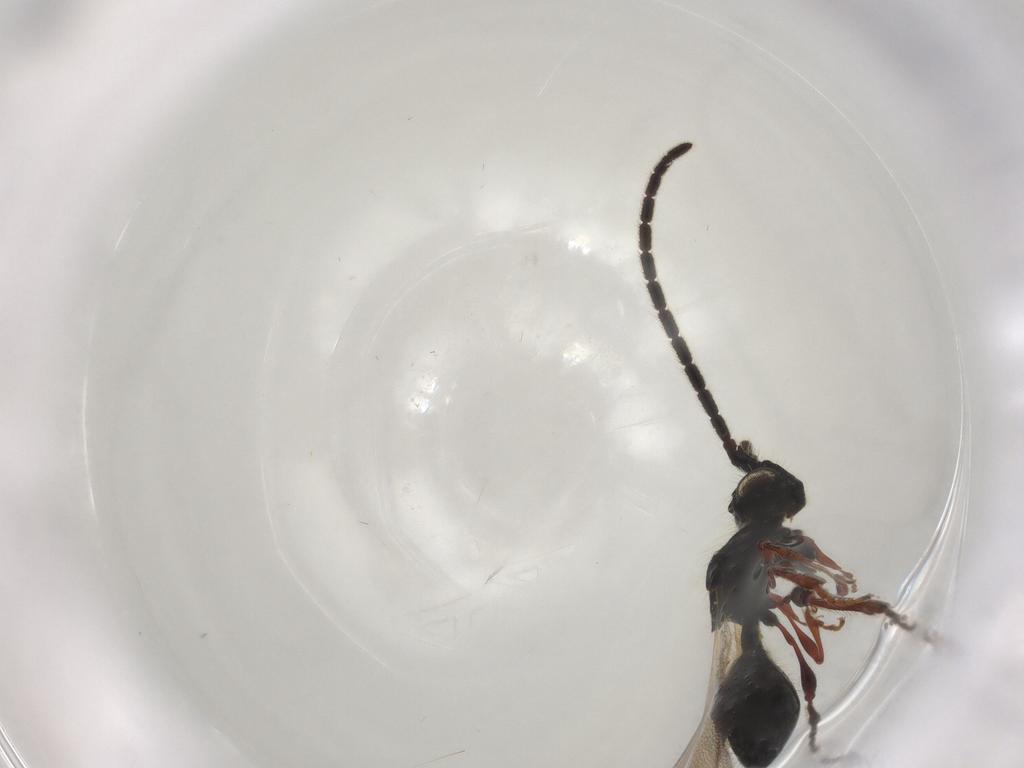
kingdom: Animalia
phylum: Arthropoda
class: Insecta
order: Hymenoptera
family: Diapriidae
